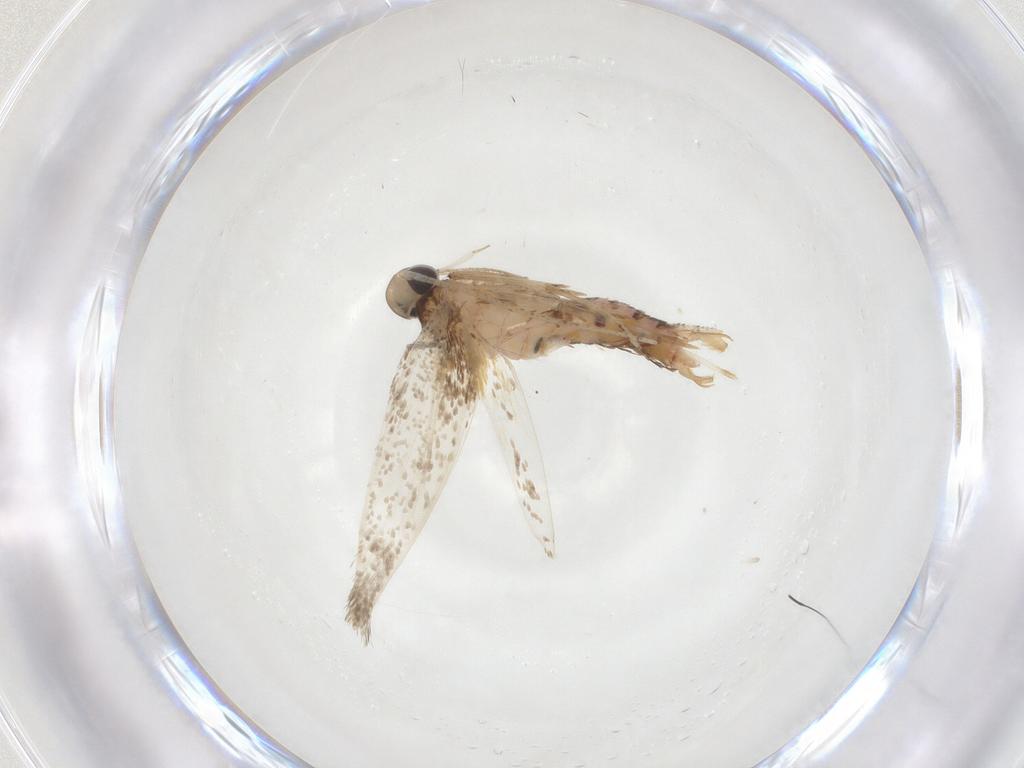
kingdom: Animalia
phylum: Arthropoda
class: Insecta
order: Lepidoptera
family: Erebidae
